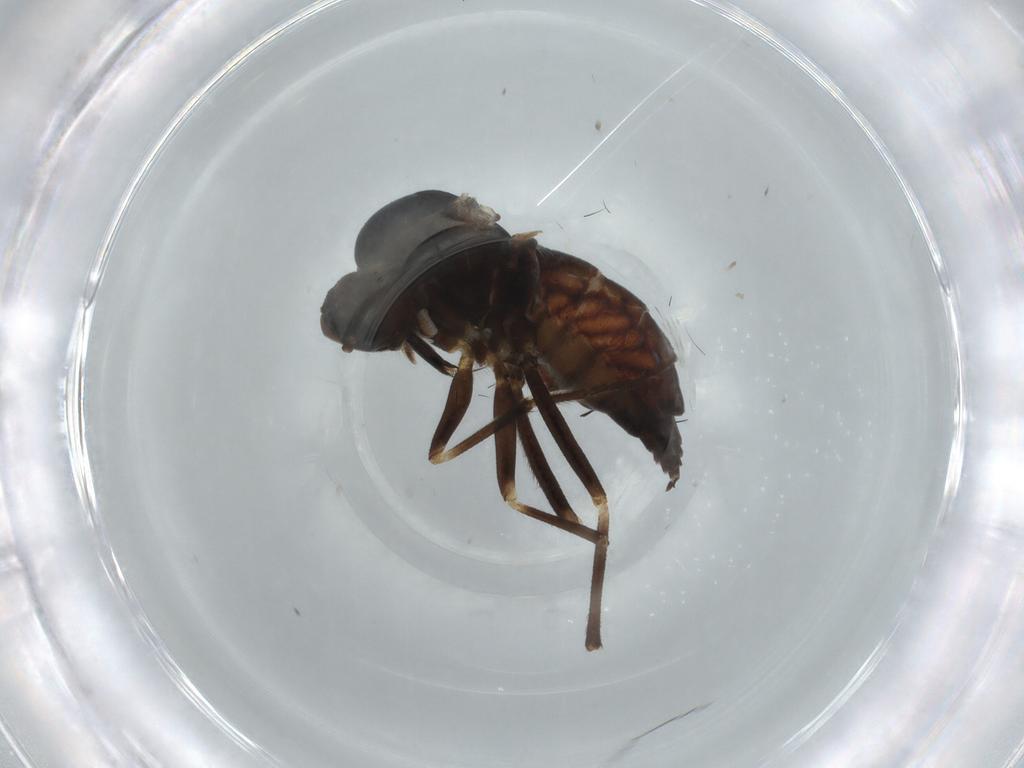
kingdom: Animalia
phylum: Arthropoda
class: Insecta
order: Diptera
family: Empididae
